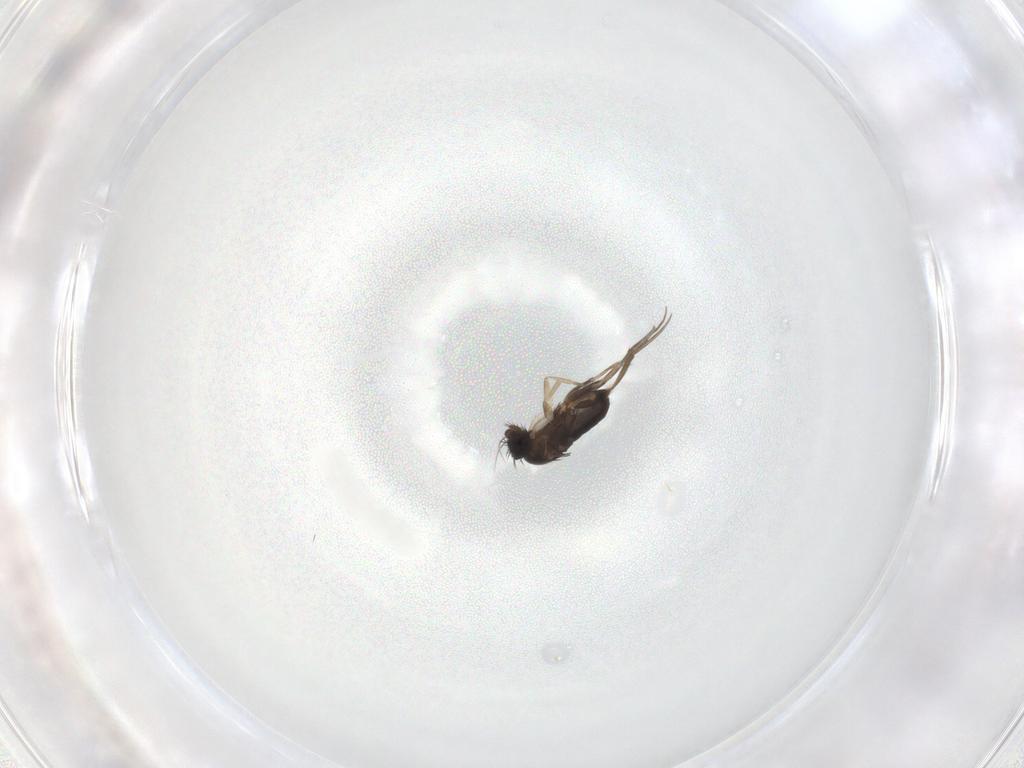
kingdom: Animalia
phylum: Arthropoda
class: Insecta
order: Diptera
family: Phoridae
